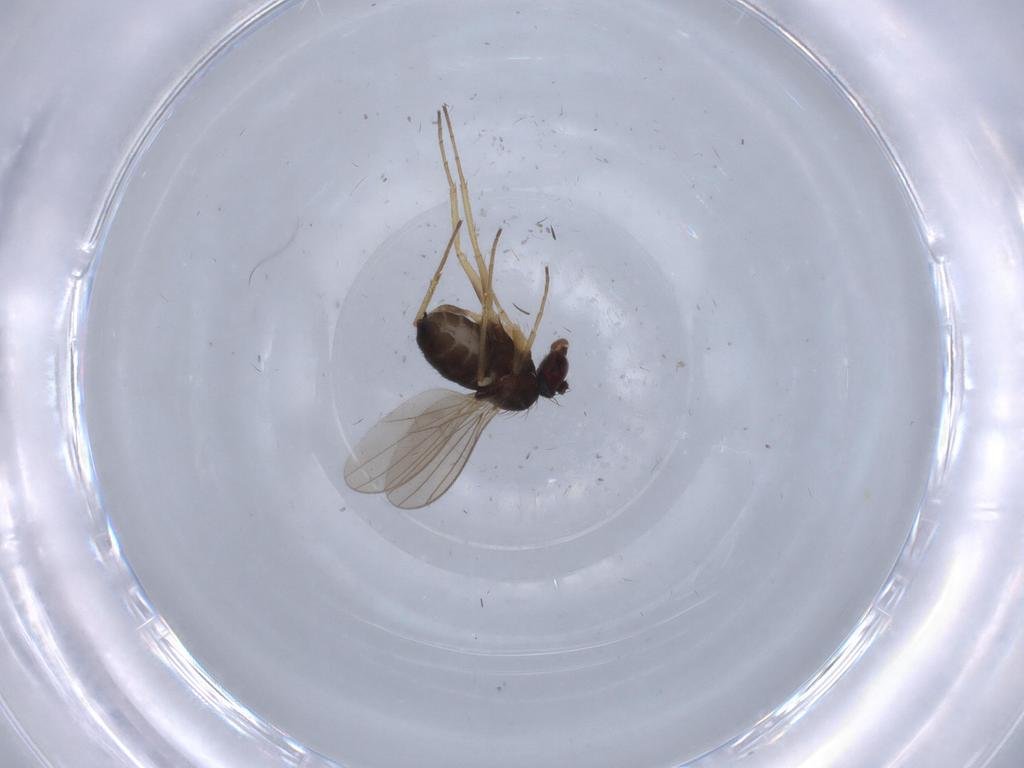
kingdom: Animalia
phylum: Arthropoda
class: Insecta
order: Diptera
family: Dolichopodidae
